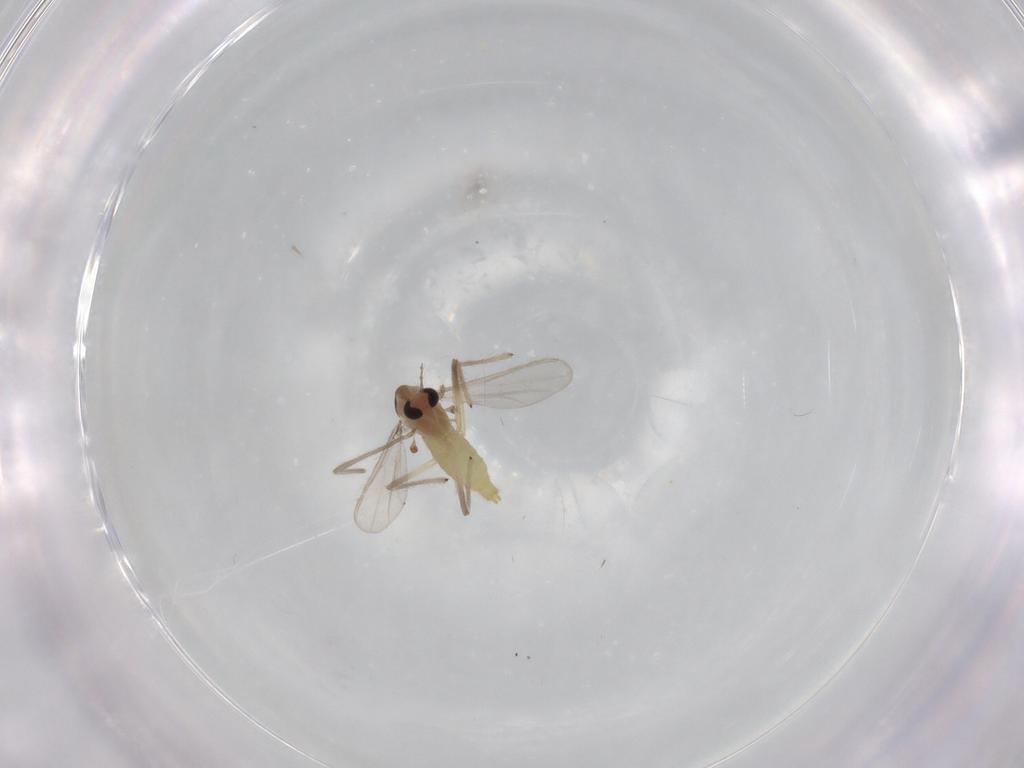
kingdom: Animalia
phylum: Arthropoda
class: Insecta
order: Diptera
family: Chironomidae
